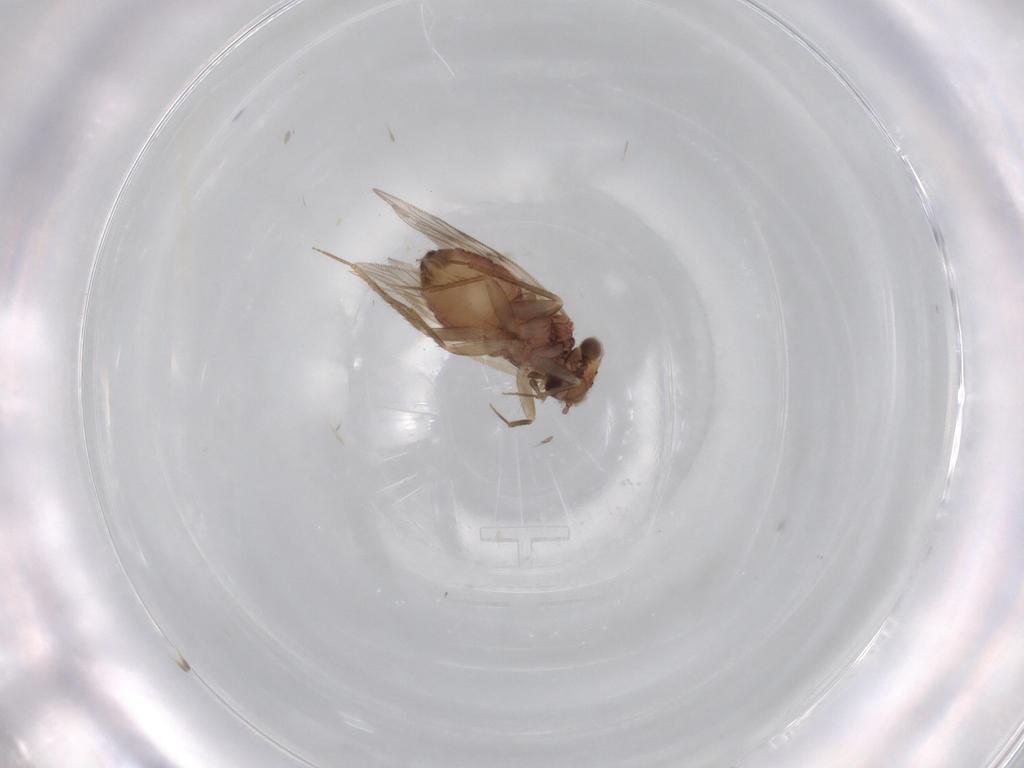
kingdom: Animalia
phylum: Arthropoda
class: Insecta
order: Psocodea
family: Lepidopsocidae
